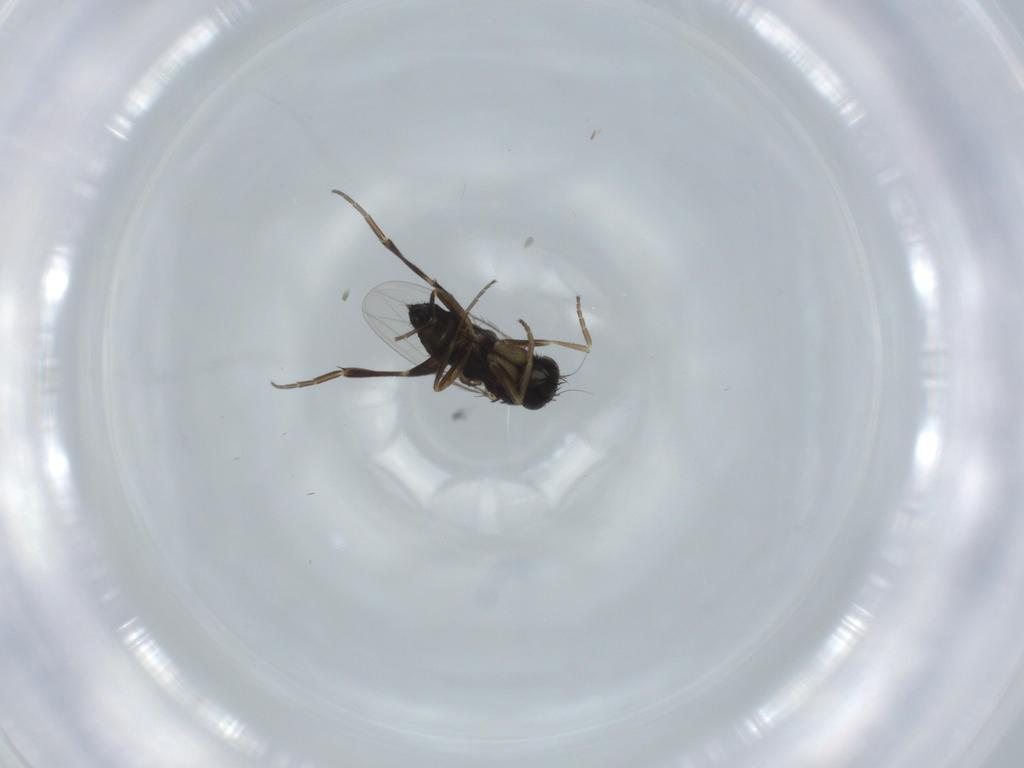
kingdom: Animalia
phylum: Arthropoda
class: Insecta
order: Diptera
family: Phoridae
